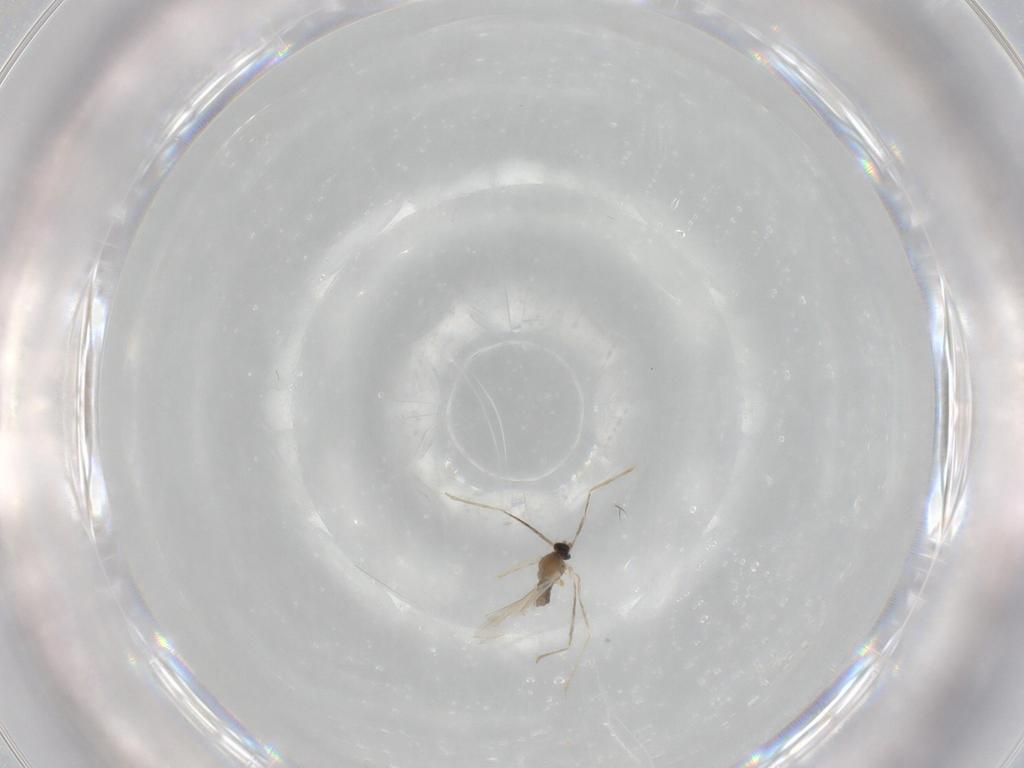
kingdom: Animalia
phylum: Arthropoda
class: Insecta
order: Diptera
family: Cecidomyiidae
